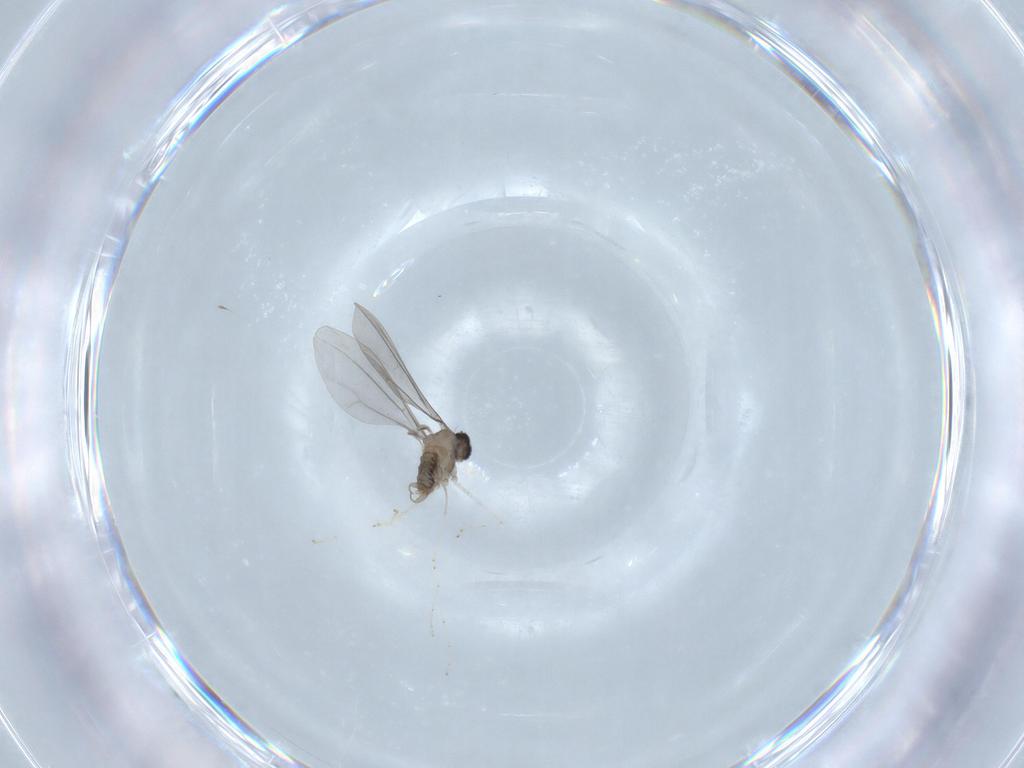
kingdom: Animalia
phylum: Arthropoda
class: Insecta
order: Diptera
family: Cecidomyiidae
